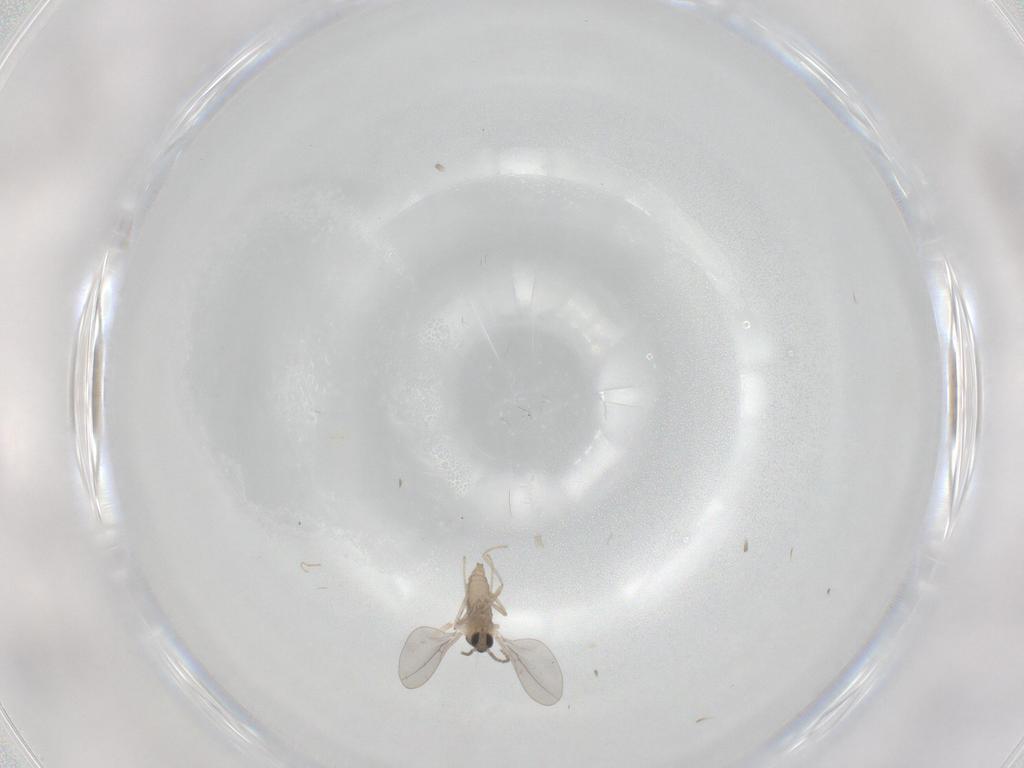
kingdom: Animalia
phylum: Arthropoda
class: Insecta
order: Diptera
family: Cecidomyiidae
